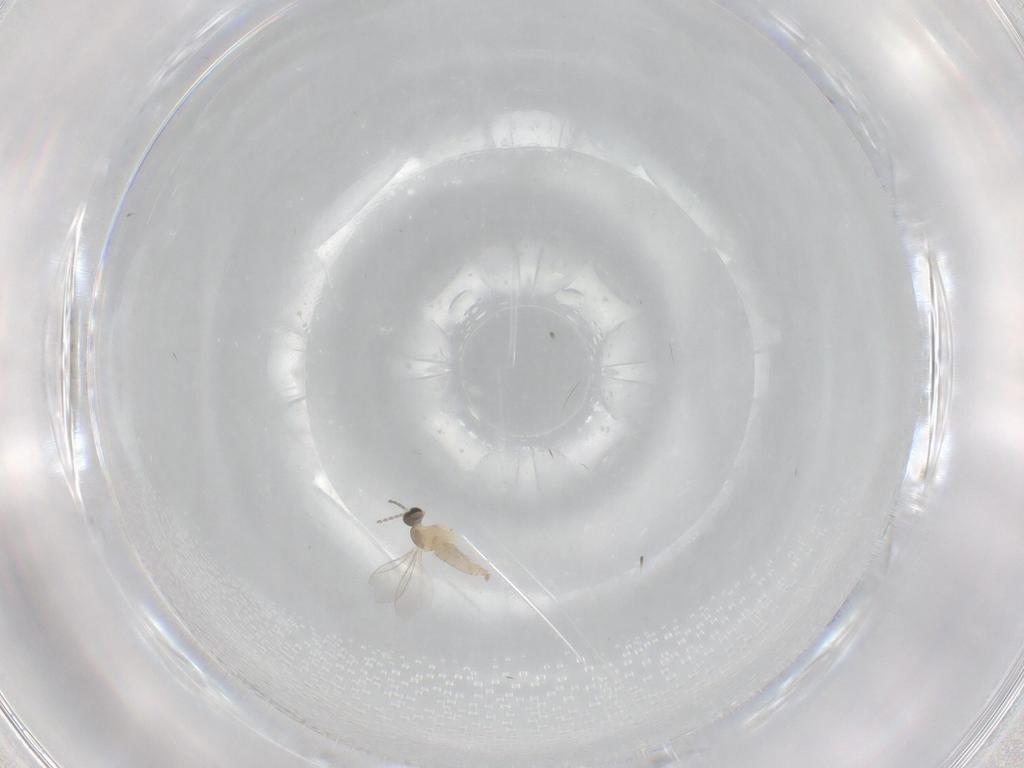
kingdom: Animalia
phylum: Arthropoda
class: Insecta
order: Diptera
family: Cecidomyiidae
